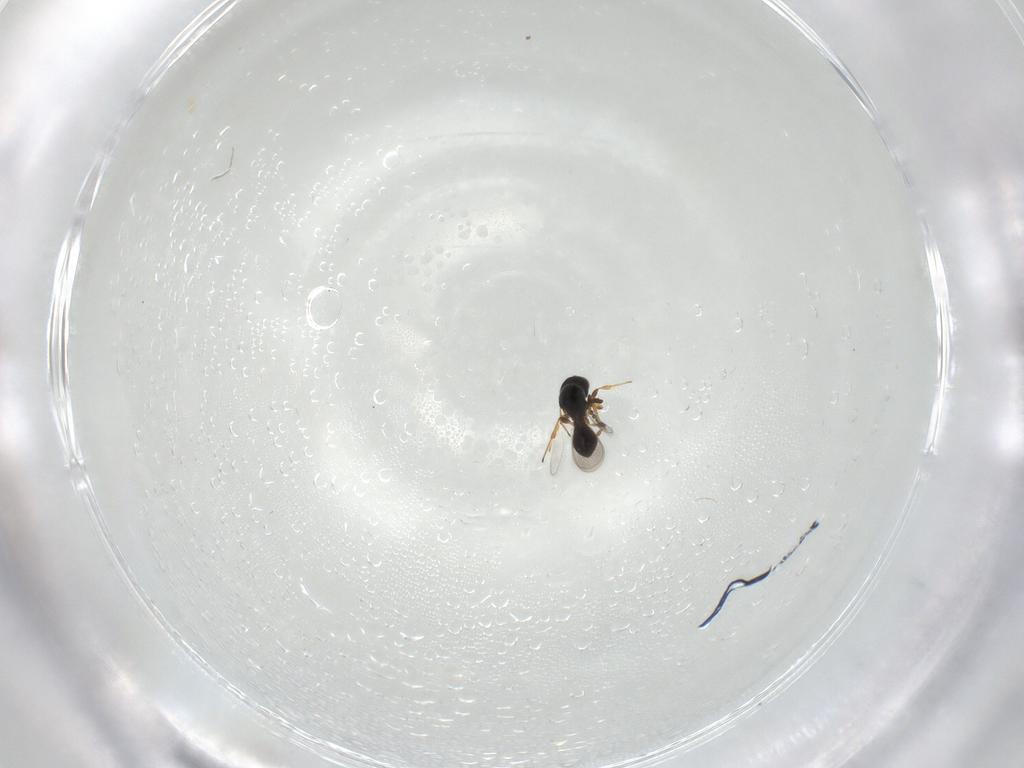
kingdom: Animalia
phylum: Arthropoda
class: Insecta
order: Hymenoptera
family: Platygastridae
